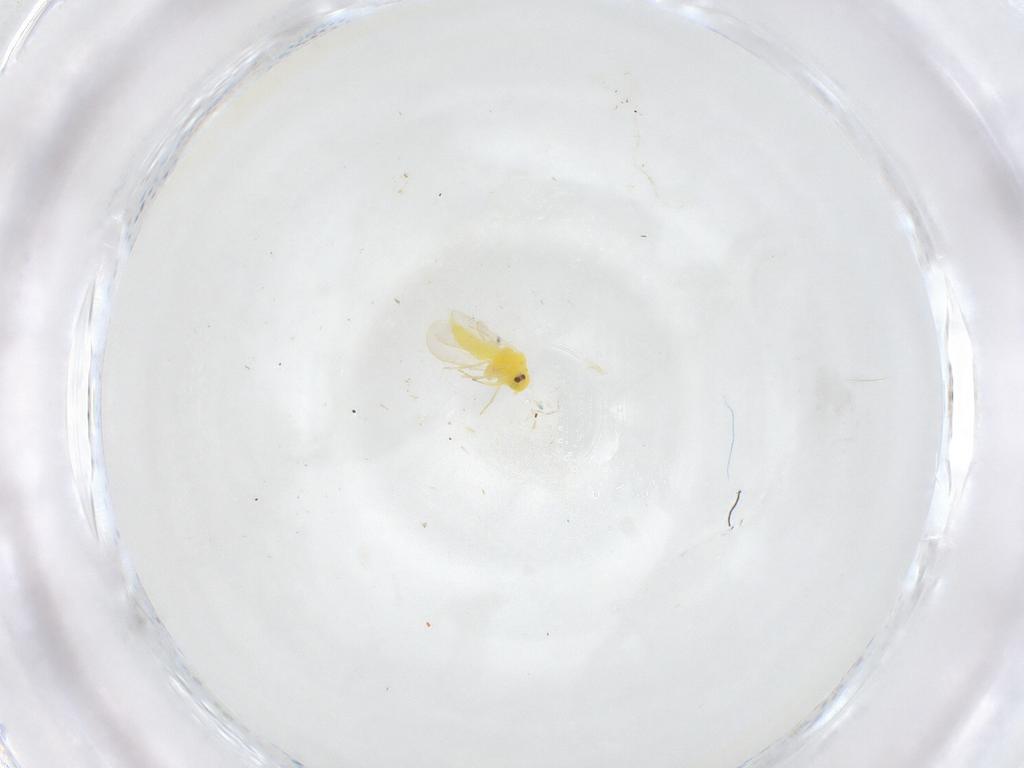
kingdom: Animalia
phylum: Arthropoda
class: Insecta
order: Hemiptera
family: Aleyrodidae
